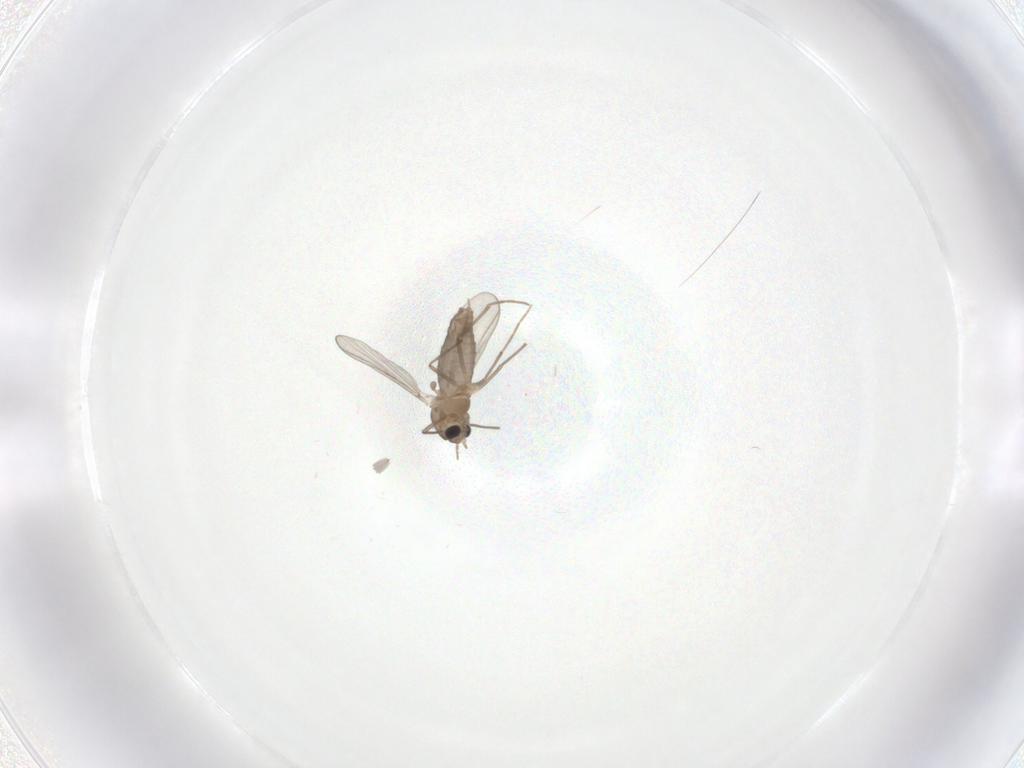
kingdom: Animalia
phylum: Arthropoda
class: Insecta
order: Diptera
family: Chironomidae
